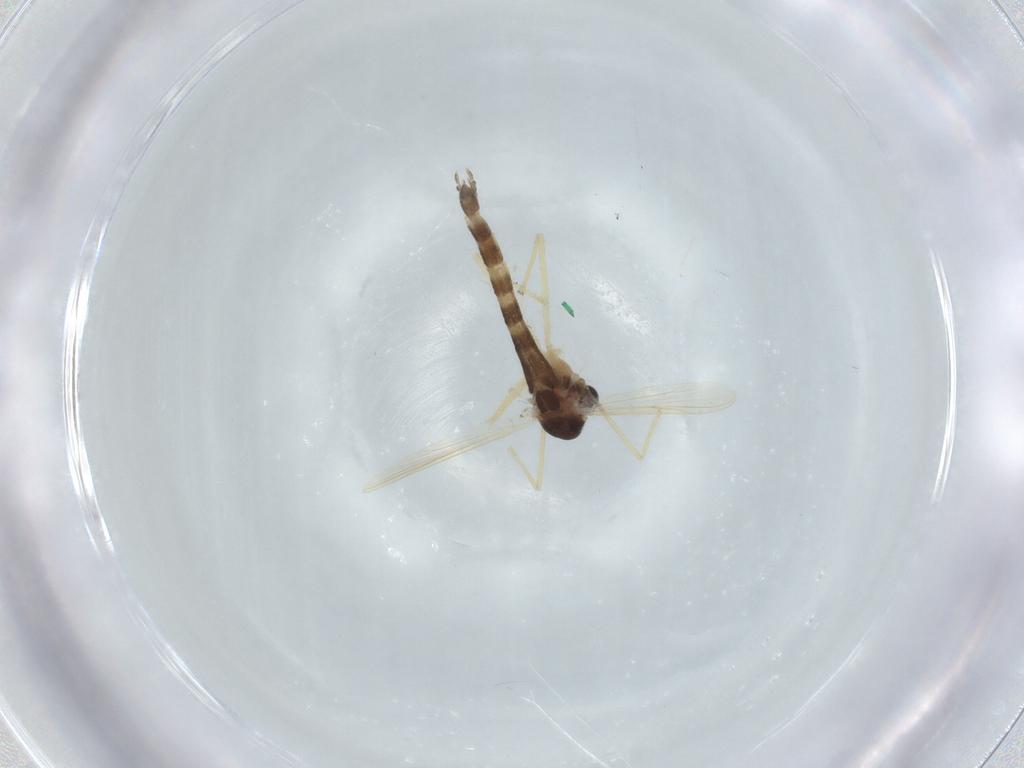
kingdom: Animalia
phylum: Arthropoda
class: Insecta
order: Diptera
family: Chironomidae
